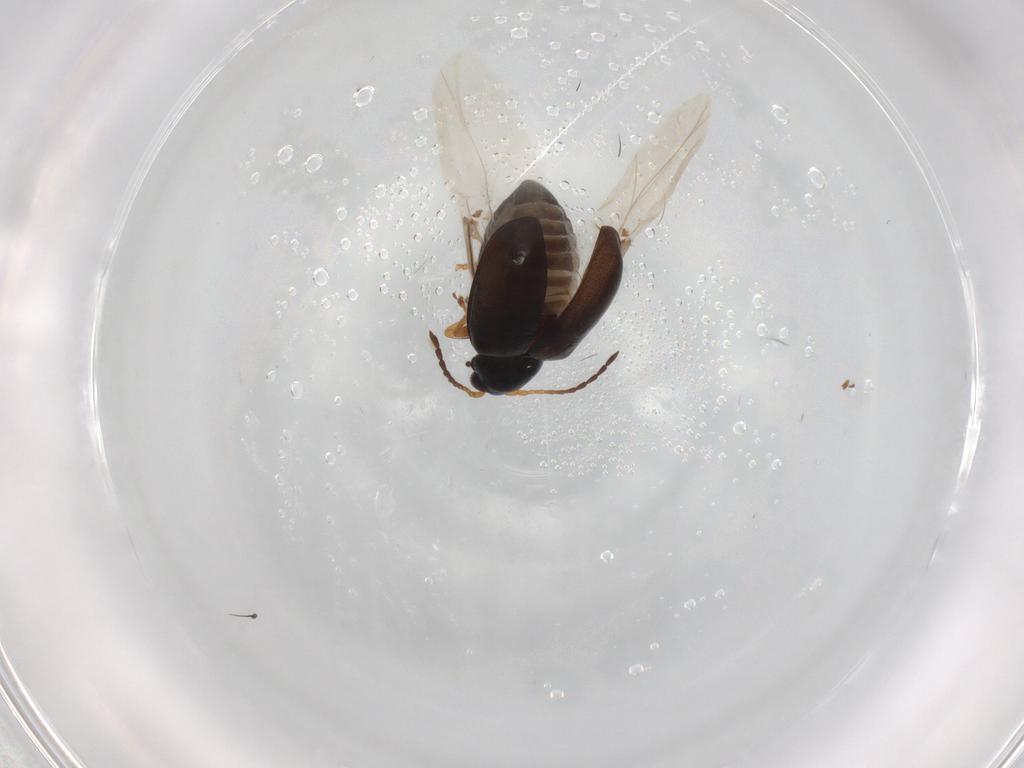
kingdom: Animalia
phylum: Arthropoda
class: Insecta
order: Coleoptera
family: Chrysomelidae
